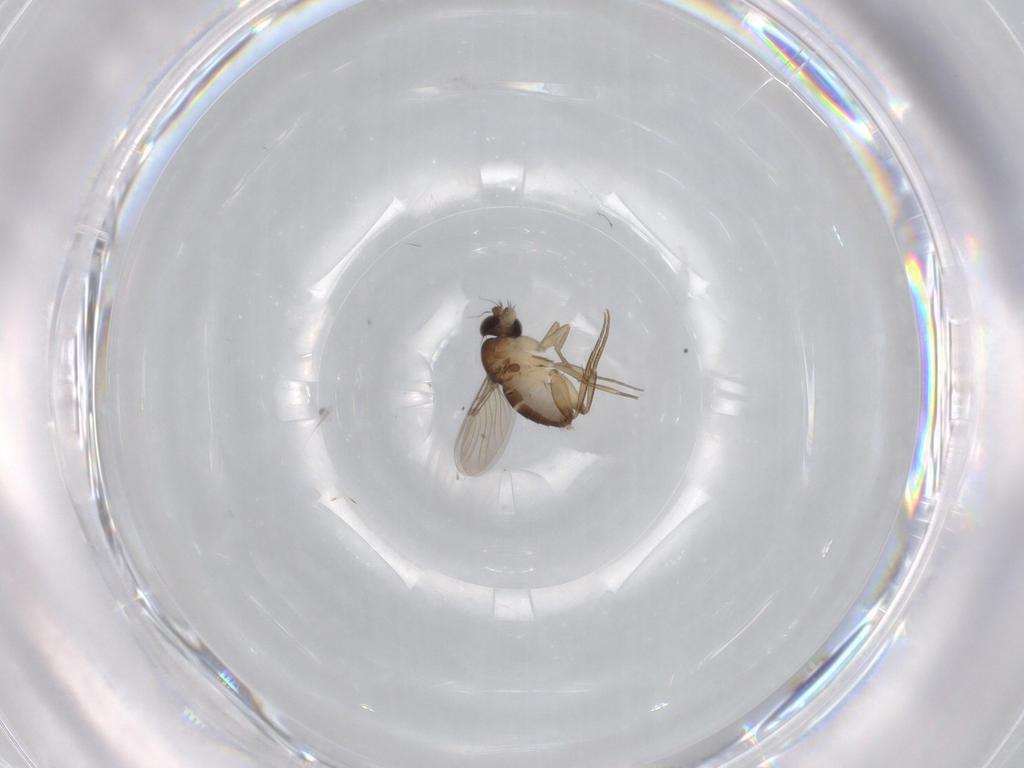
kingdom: Animalia
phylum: Arthropoda
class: Insecta
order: Diptera
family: Phoridae
